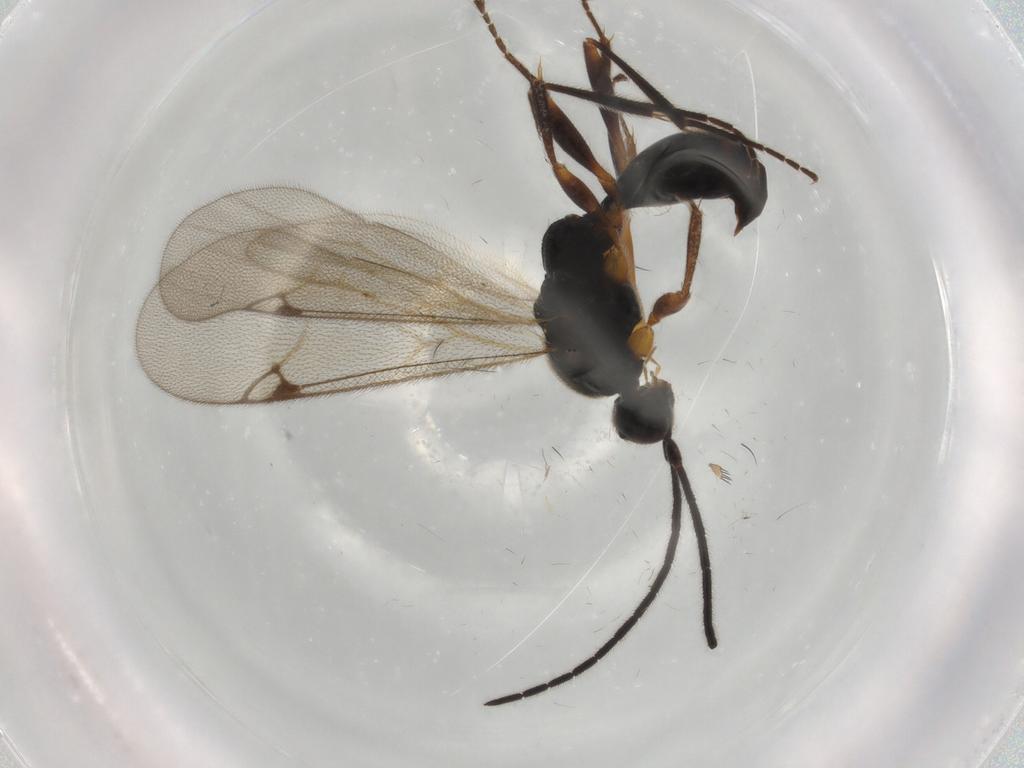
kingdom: Animalia
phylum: Arthropoda
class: Insecta
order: Hymenoptera
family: Proctotrupidae
